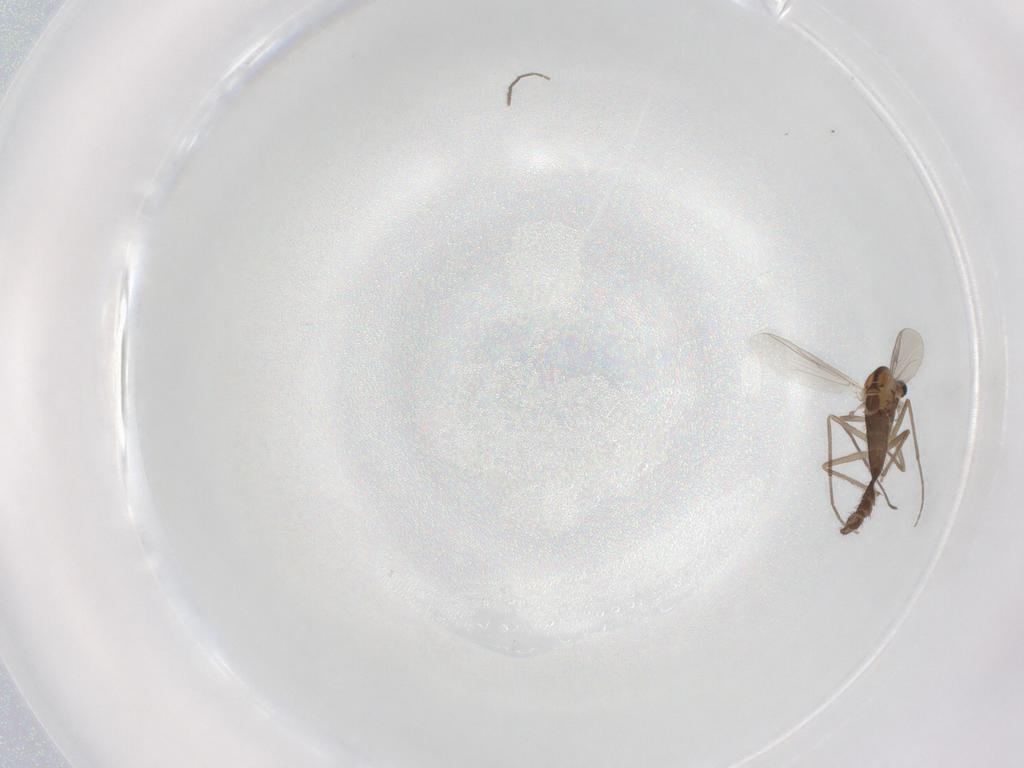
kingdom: Animalia
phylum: Arthropoda
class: Insecta
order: Diptera
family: Chironomidae
